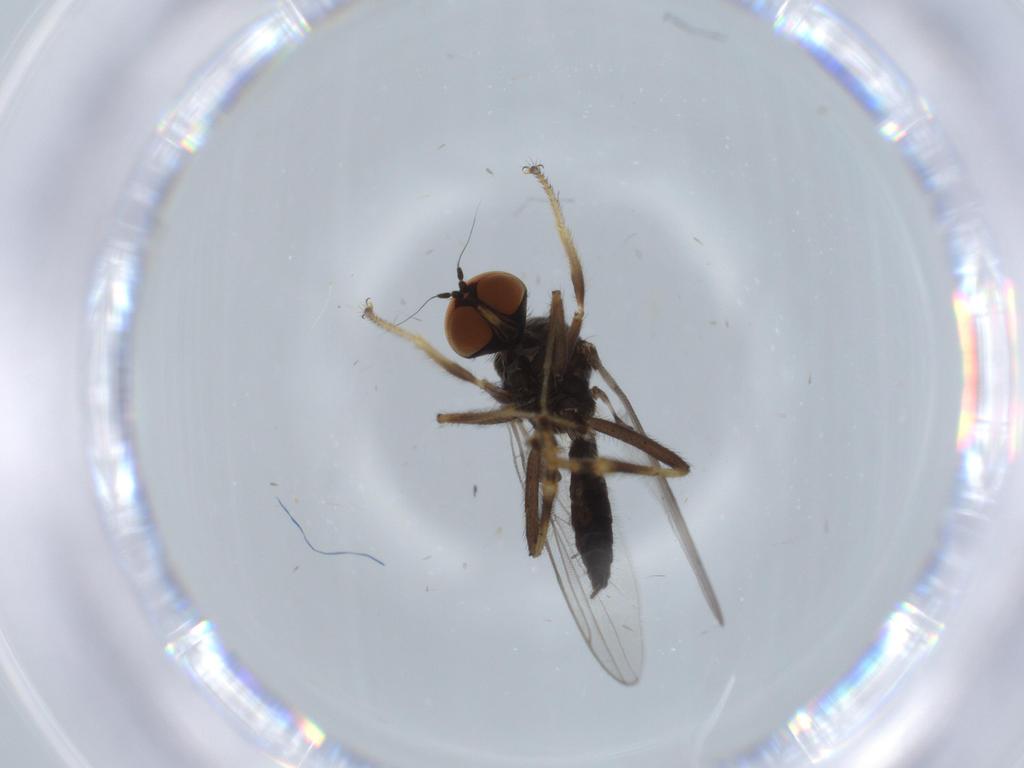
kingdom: Animalia
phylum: Arthropoda
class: Insecta
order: Diptera
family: Hybotidae
